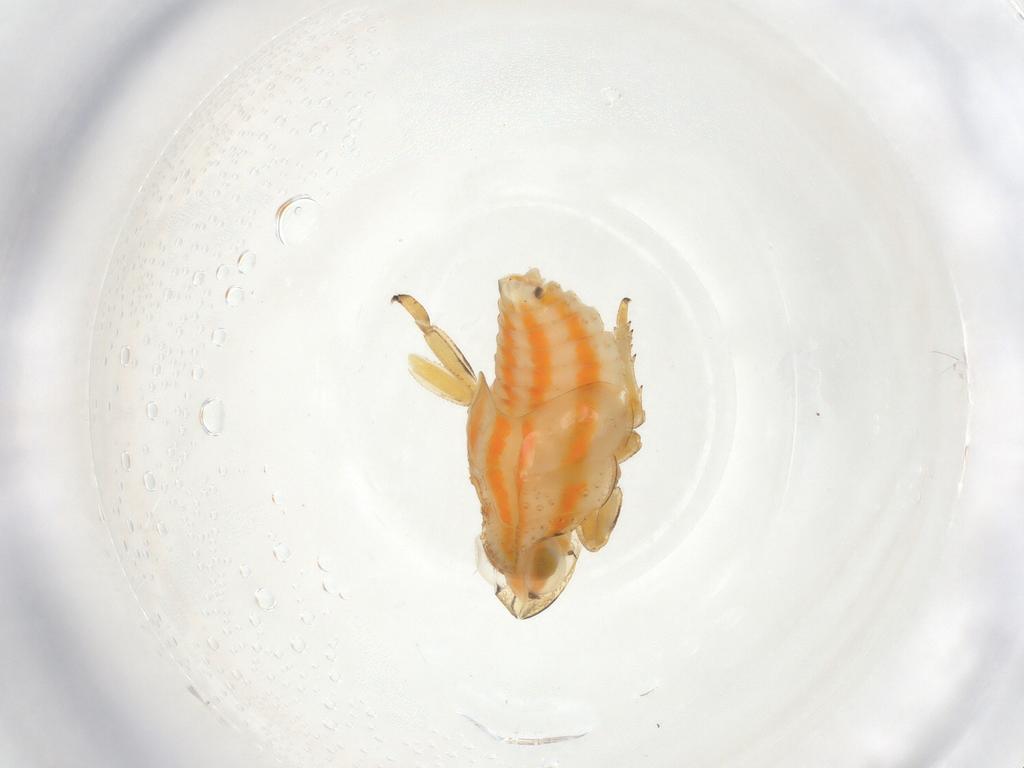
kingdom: Animalia
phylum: Arthropoda
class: Insecta
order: Hemiptera
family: Issidae
